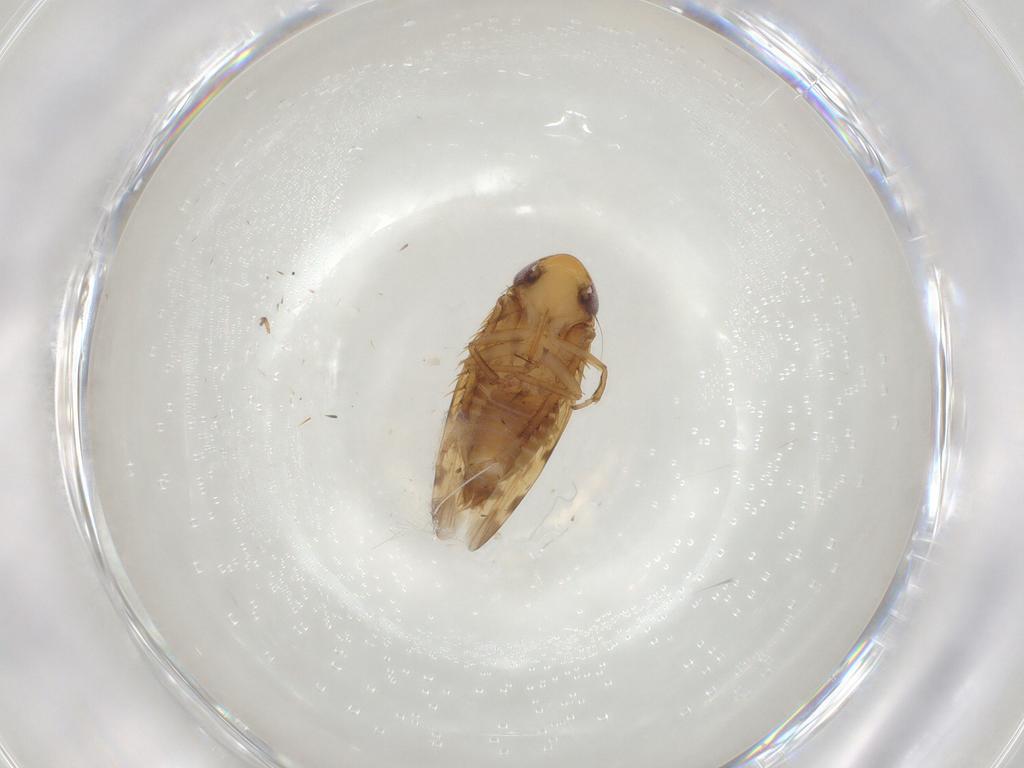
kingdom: Animalia
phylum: Arthropoda
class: Insecta
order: Hemiptera
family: Cicadellidae
